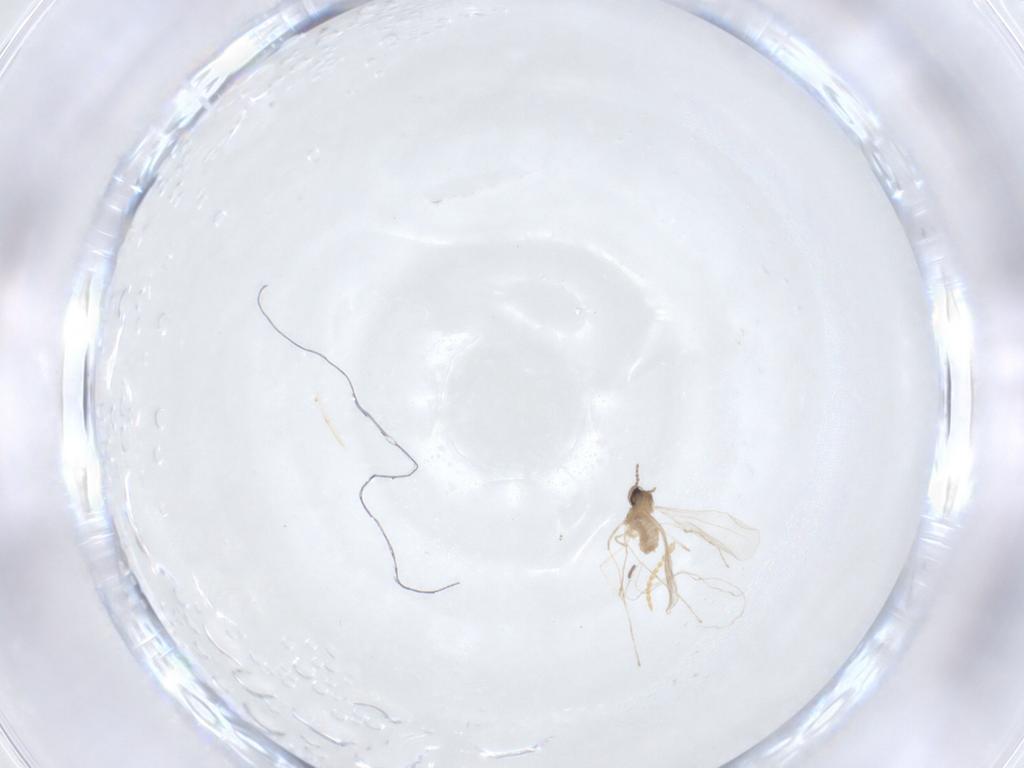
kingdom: Animalia
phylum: Arthropoda
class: Insecta
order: Diptera
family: Cecidomyiidae
